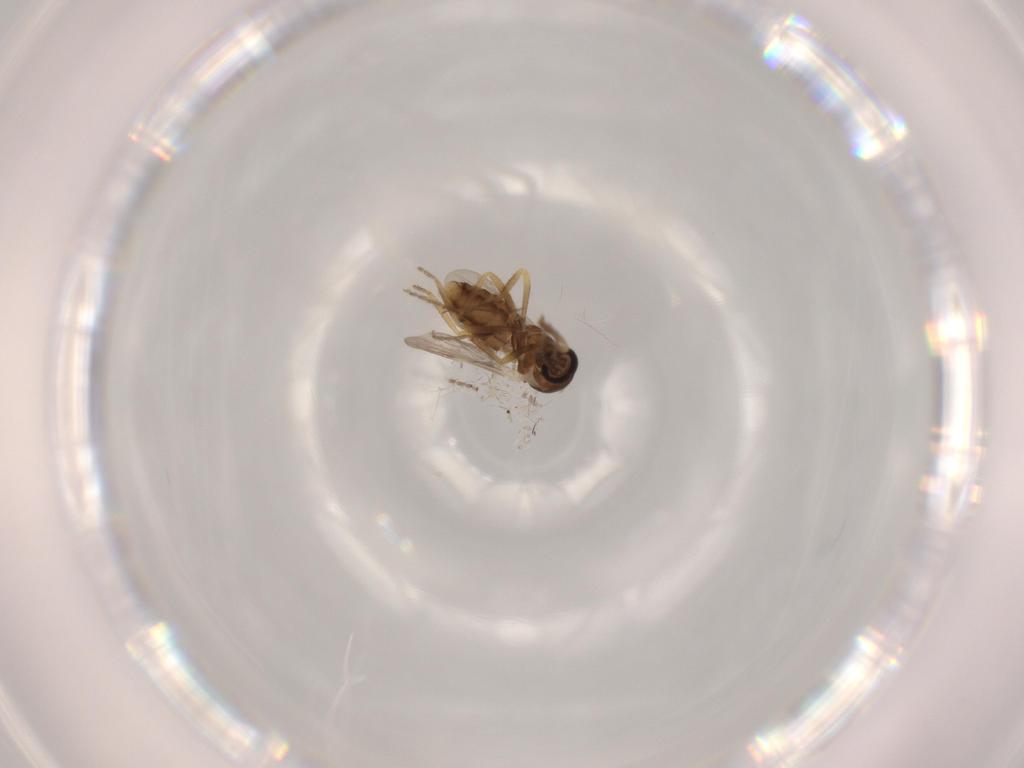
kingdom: Animalia
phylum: Arthropoda
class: Insecta
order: Diptera
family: Ceratopogonidae
